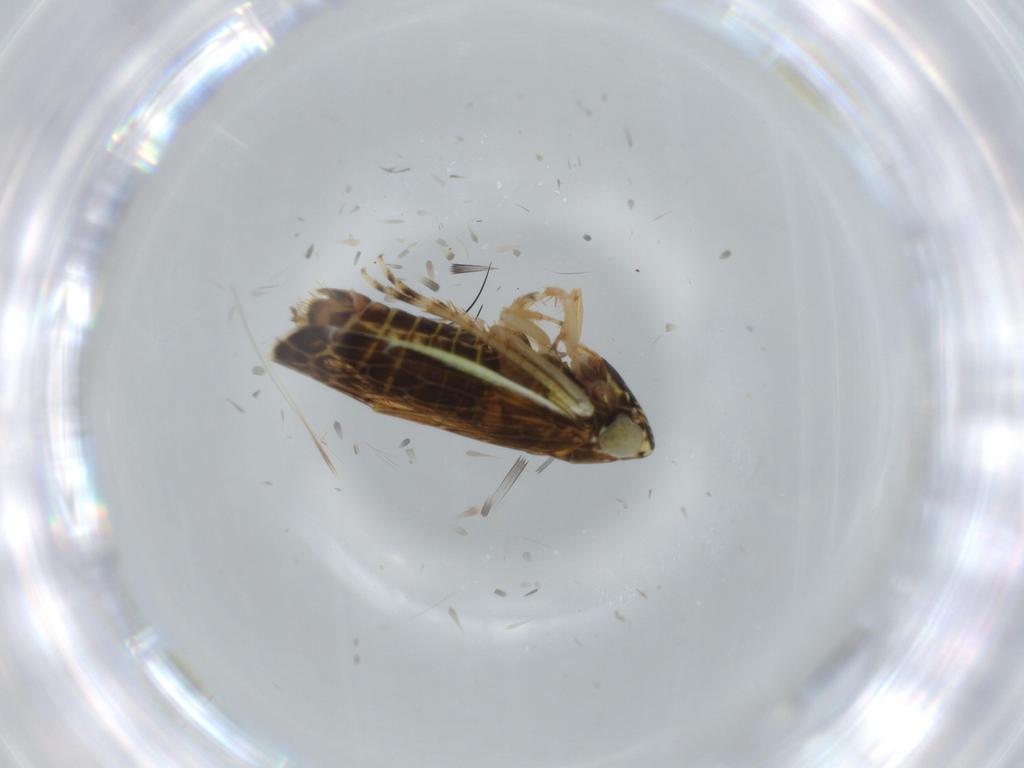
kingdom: Animalia
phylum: Arthropoda
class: Insecta
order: Hemiptera
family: Cicadellidae
